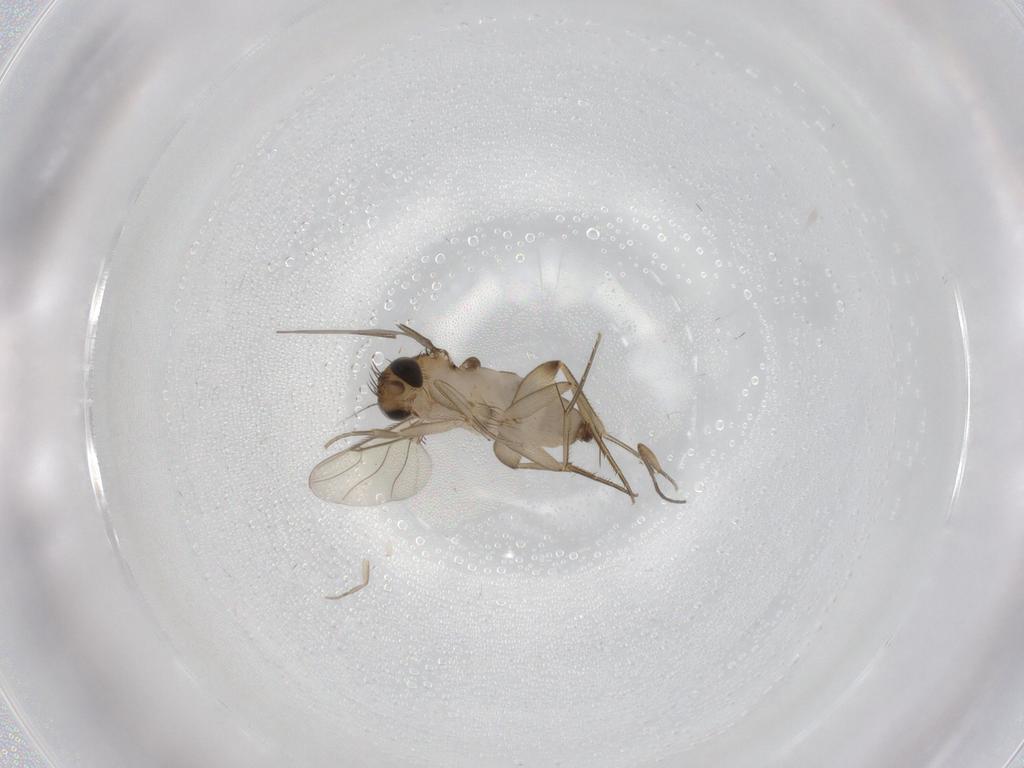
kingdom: Animalia
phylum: Arthropoda
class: Insecta
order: Diptera
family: Phoridae
